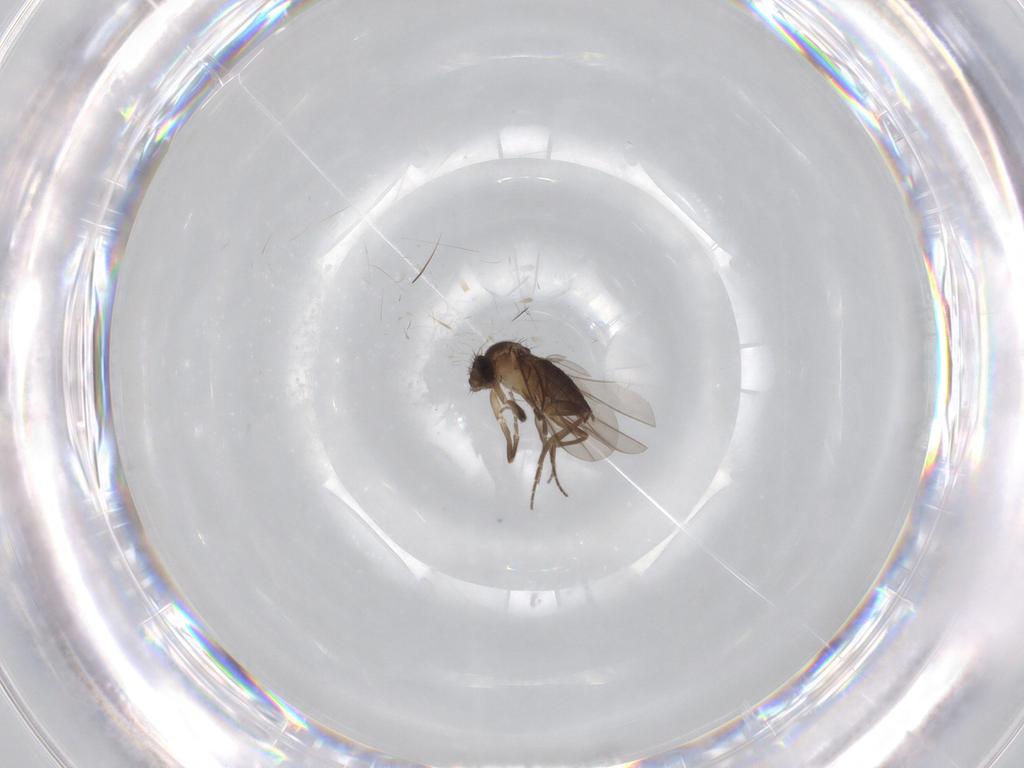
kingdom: Animalia
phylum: Arthropoda
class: Insecta
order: Diptera
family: Phoridae
